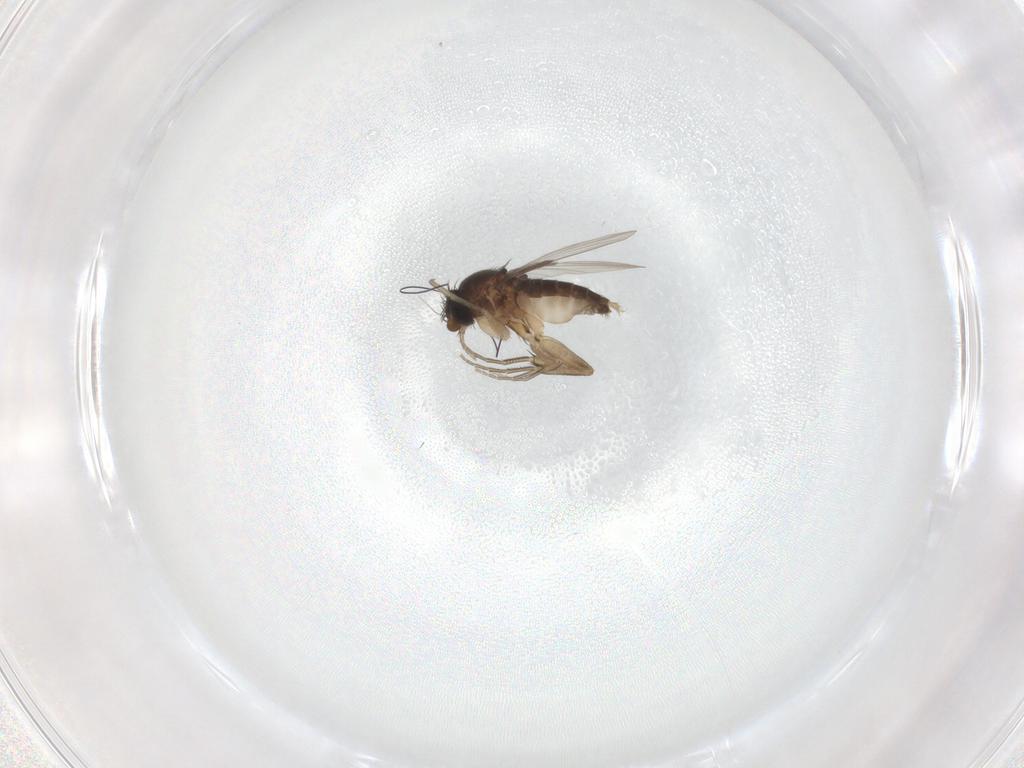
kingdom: Animalia
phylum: Arthropoda
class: Insecta
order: Diptera
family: Phoridae
